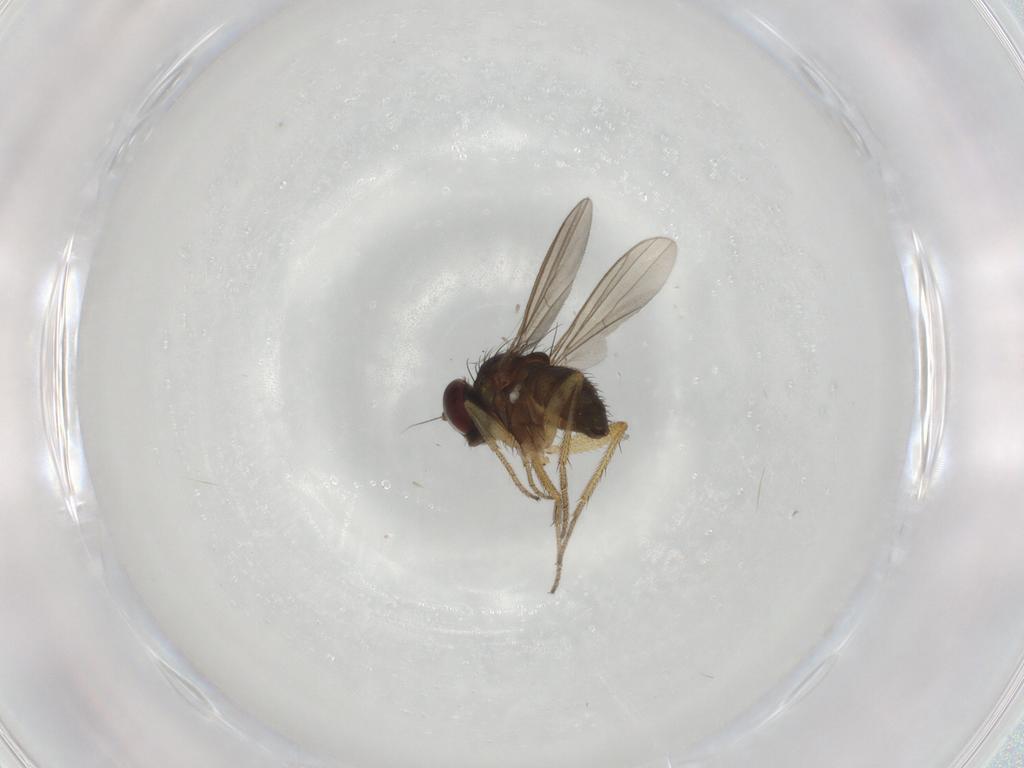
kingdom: Animalia
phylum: Arthropoda
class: Insecta
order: Diptera
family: Dolichopodidae
